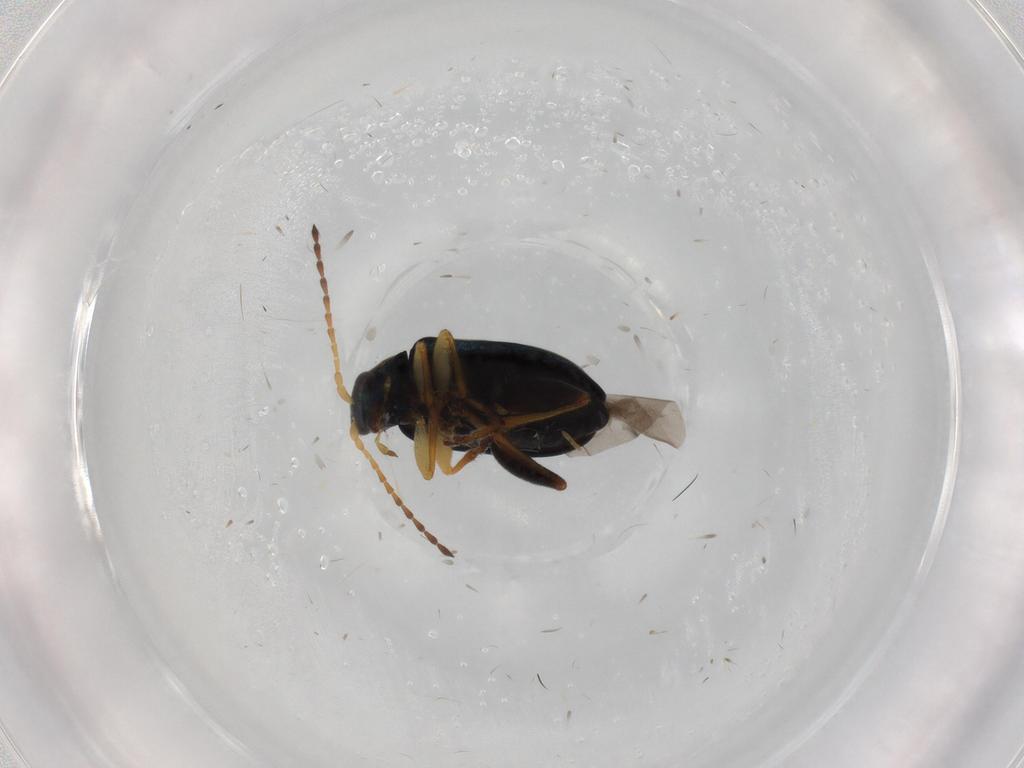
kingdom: Animalia
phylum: Arthropoda
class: Insecta
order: Coleoptera
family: Chrysomelidae
